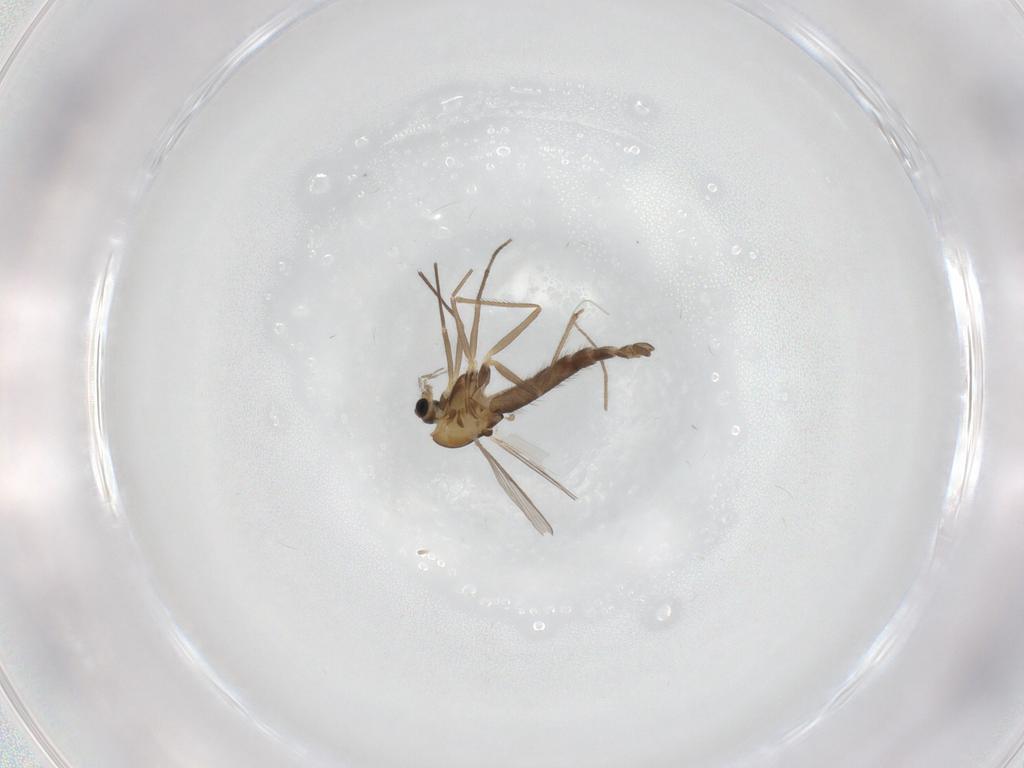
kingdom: Animalia
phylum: Arthropoda
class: Insecta
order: Diptera
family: Chironomidae
